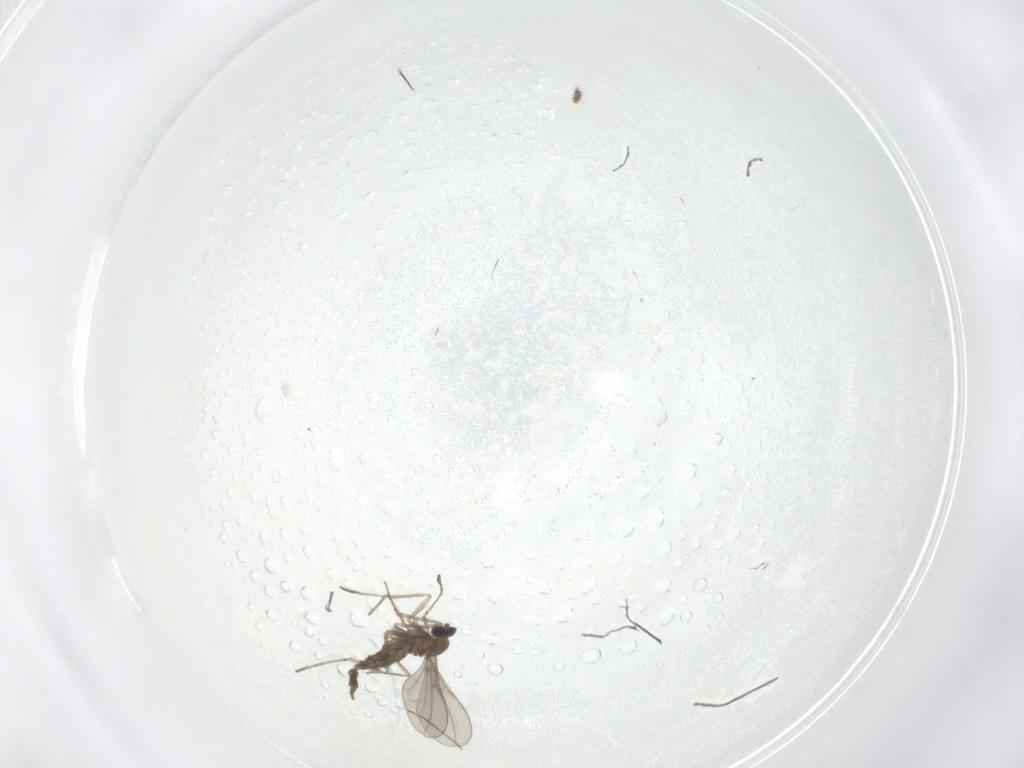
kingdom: Animalia
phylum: Arthropoda
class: Insecta
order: Diptera
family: Cecidomyiidae
